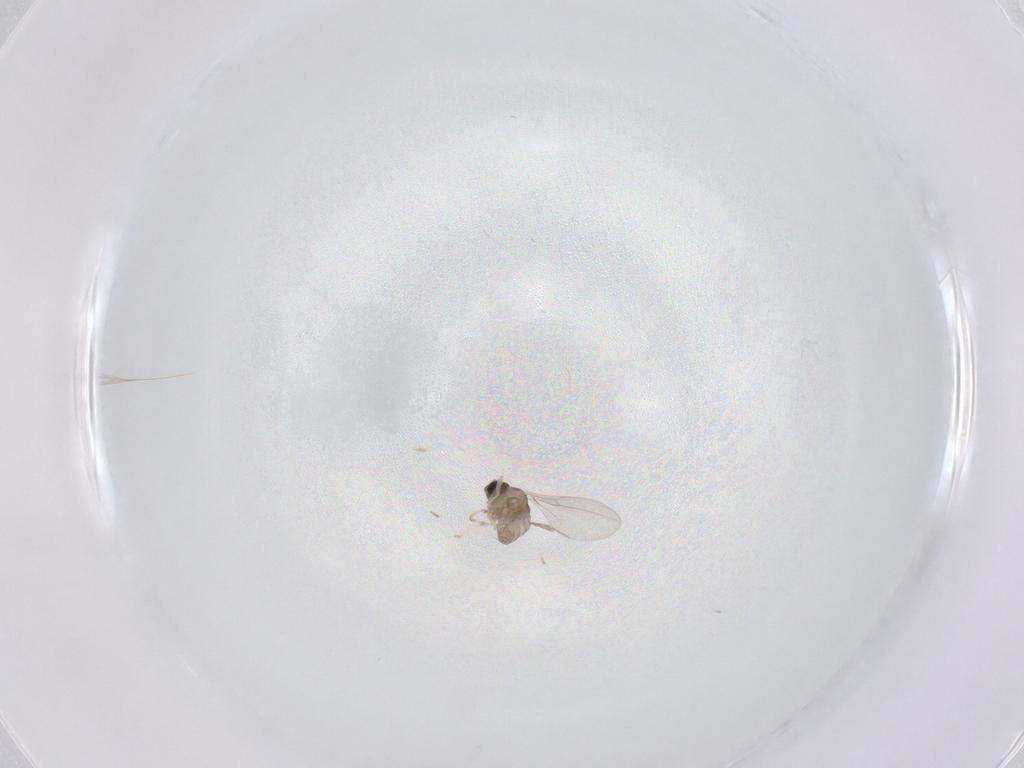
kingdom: Animalia
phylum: Arthropoda
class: Insecta
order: Diptera
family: Cecidomyiidae
